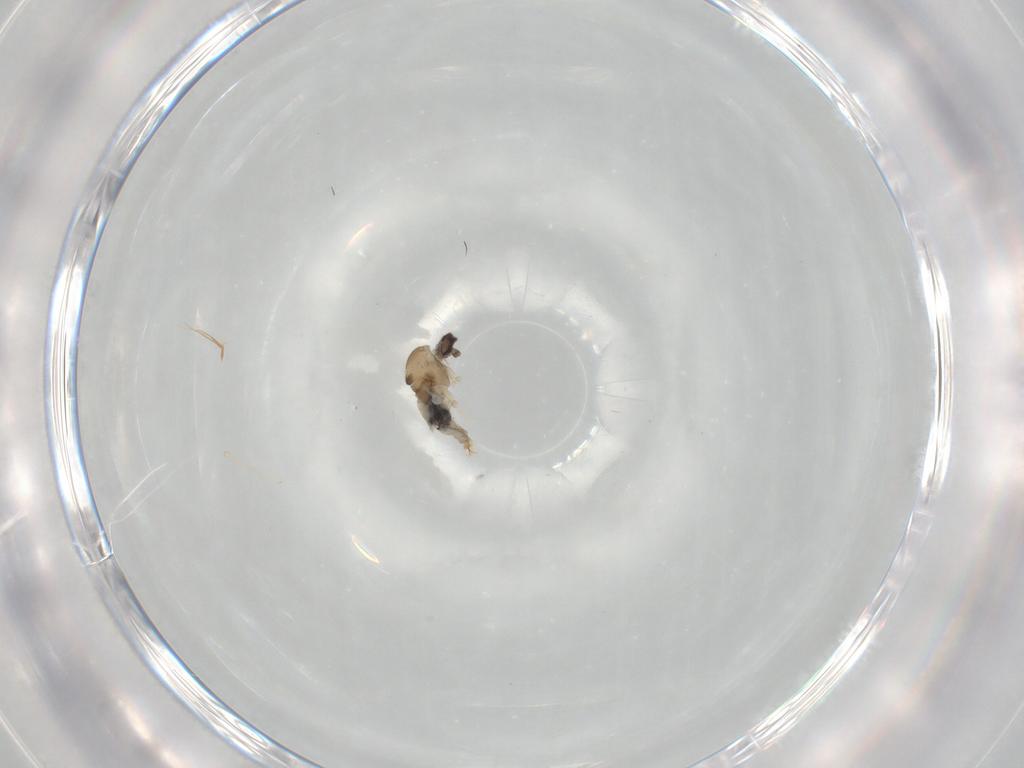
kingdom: Animalia
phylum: Arthropoda
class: Insecta
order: Diptera
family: Cecidomyiidae
